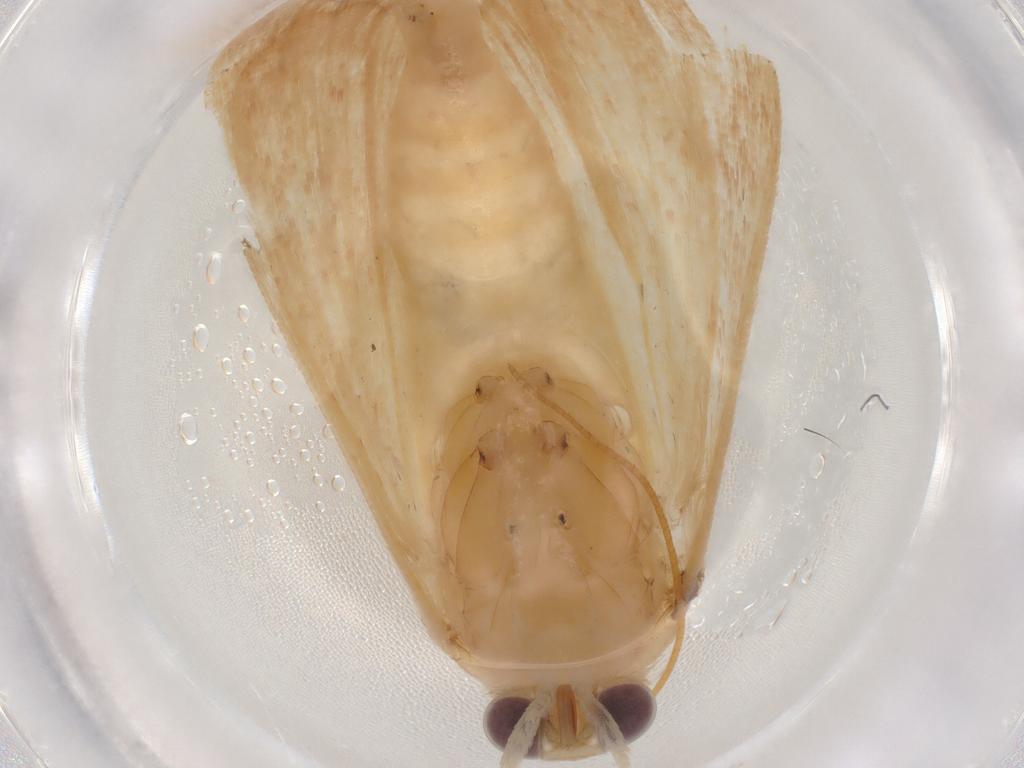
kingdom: Animalia
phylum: Arthropoda
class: Insecta
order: Lepidoptera
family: Noctuidae
